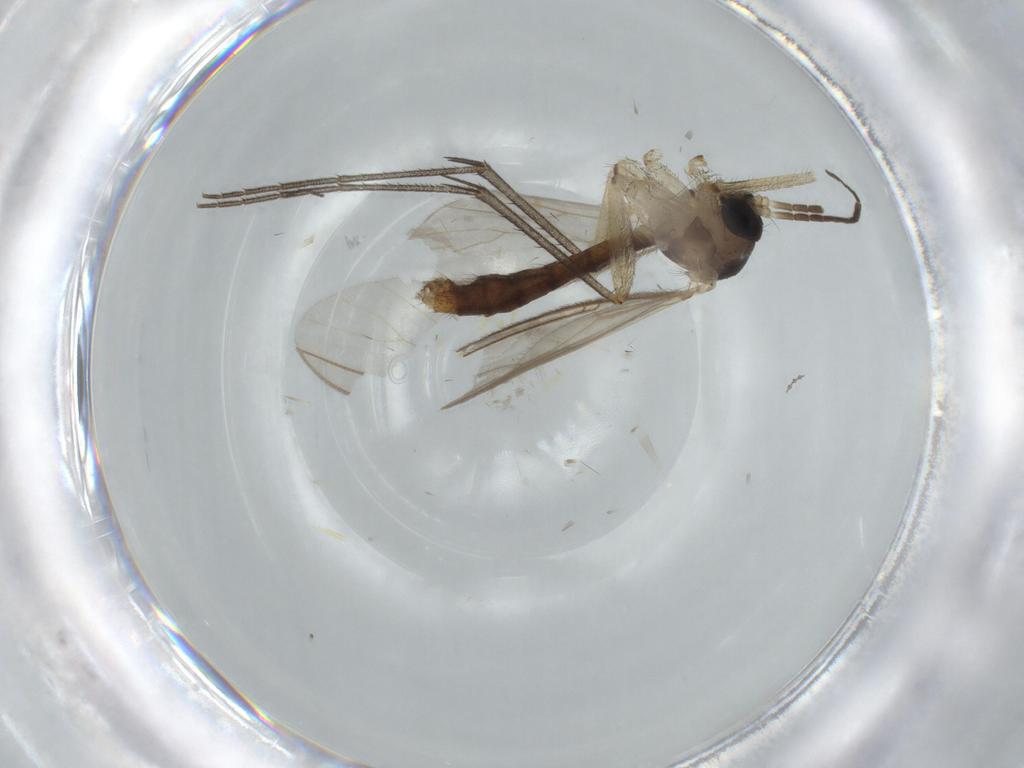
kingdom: Animalia
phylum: Arthropoda
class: Insecta
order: Diptera
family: Mycetophilidae
